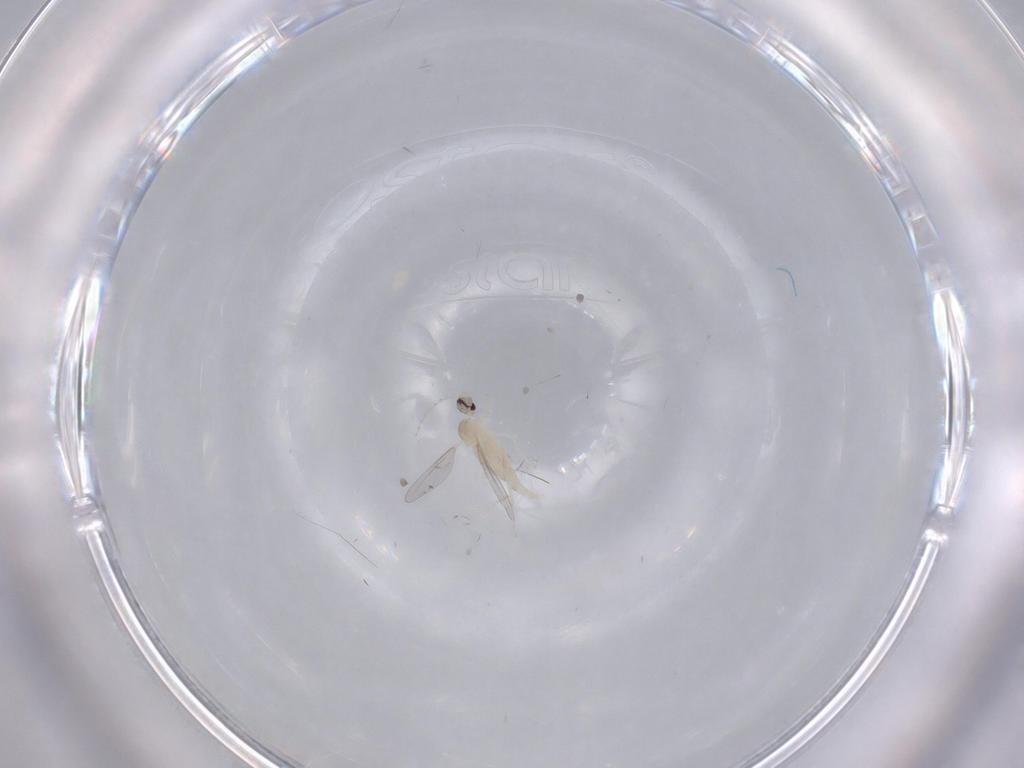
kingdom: Animalia
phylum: Arthropoda
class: Insecta
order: Diptera
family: Cecidomyiidae
